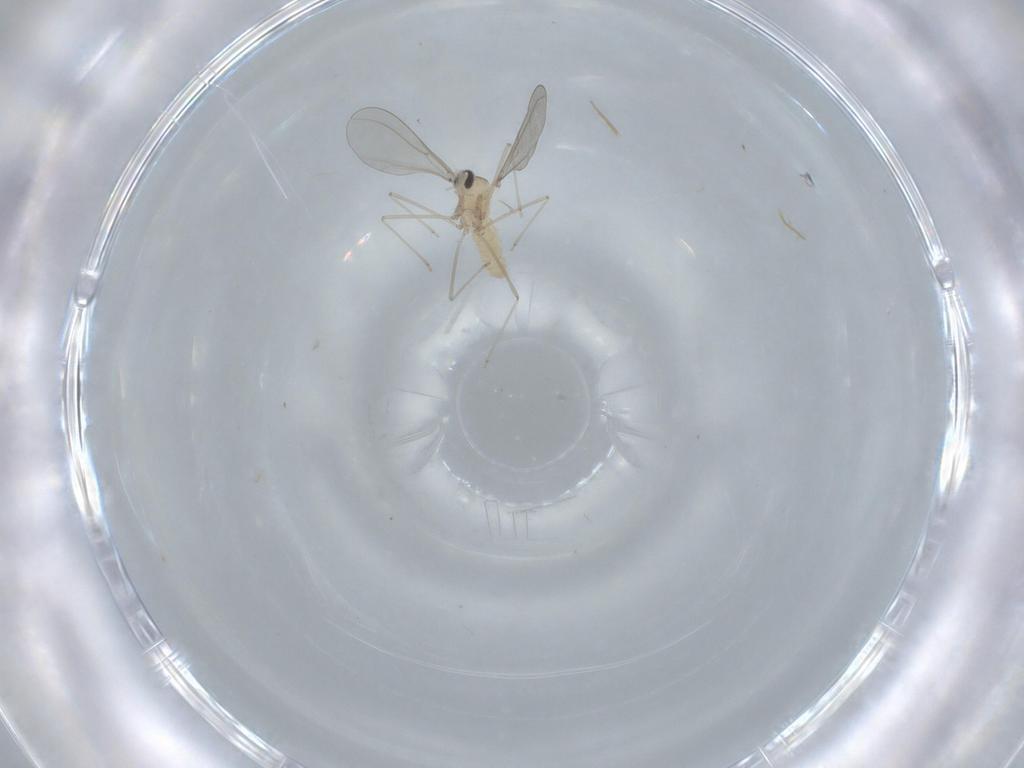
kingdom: Animalia
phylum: Arthropoda
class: Insecta
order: Diptera
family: Cecidomyiidae
